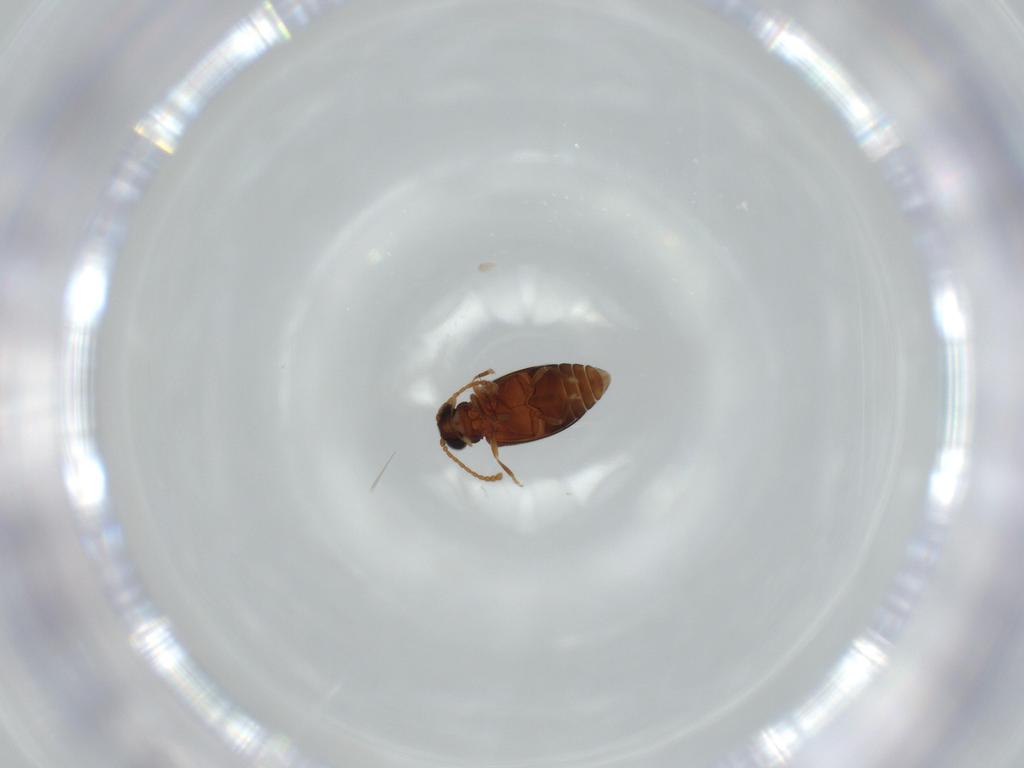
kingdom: Animalia
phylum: Arthropoda
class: Insecta
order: Coleoptera
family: Aderidae
